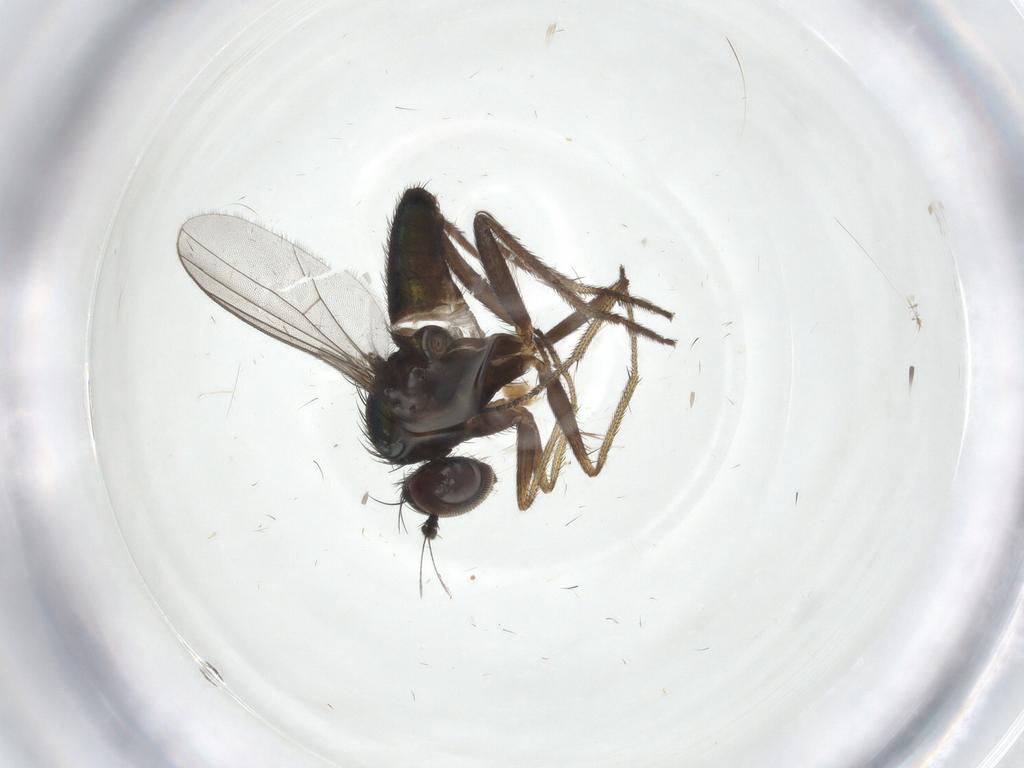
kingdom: Animalia
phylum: Arthropoda
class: Insecta
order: Diptera
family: Dolichopodidae
